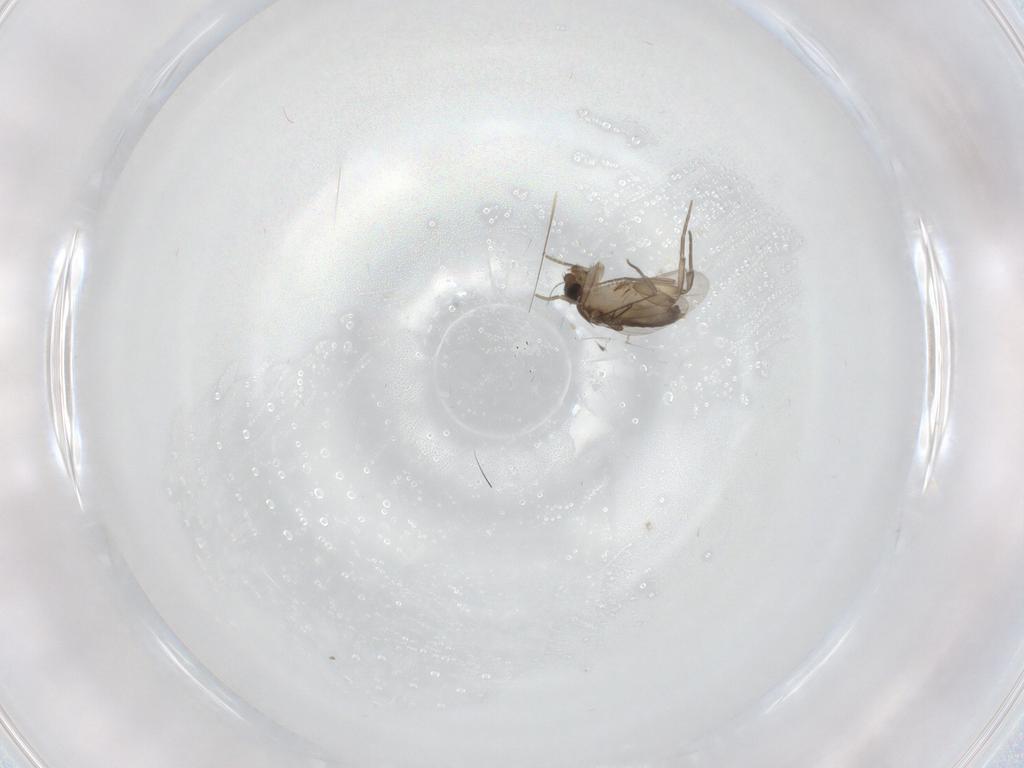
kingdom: Animalia
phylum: Arthropoda
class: Insecta
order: Diptera
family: Phoridae
